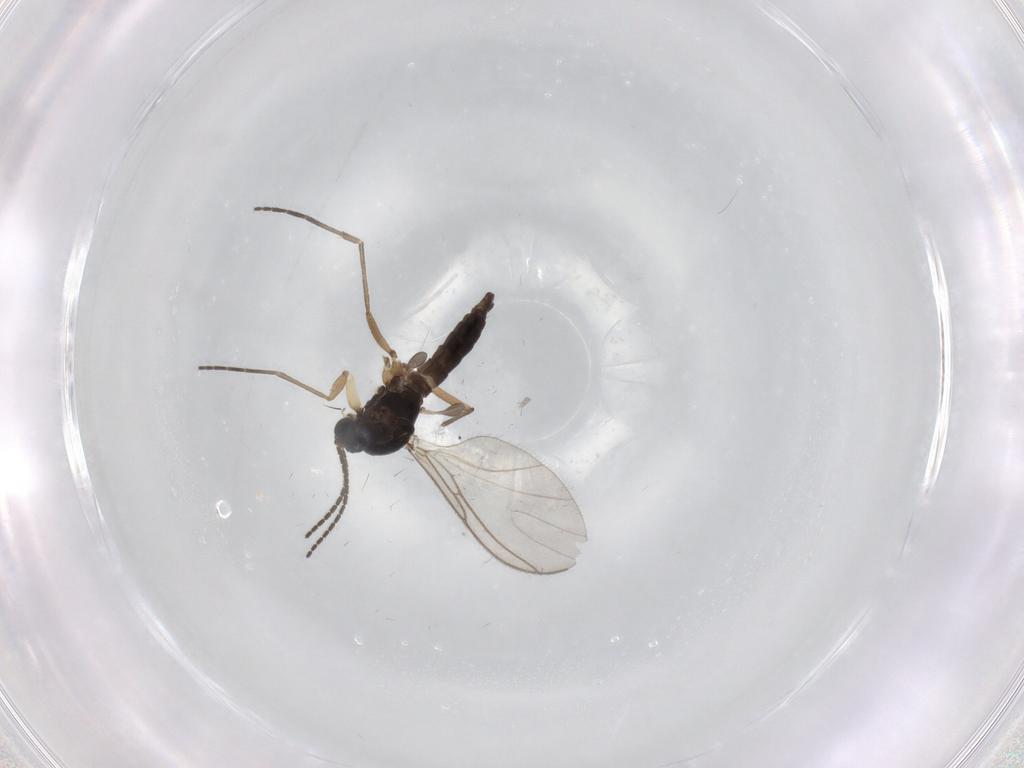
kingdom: Animalia
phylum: Arthropoda
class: Insecta
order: Diptera
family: Sciaridae
